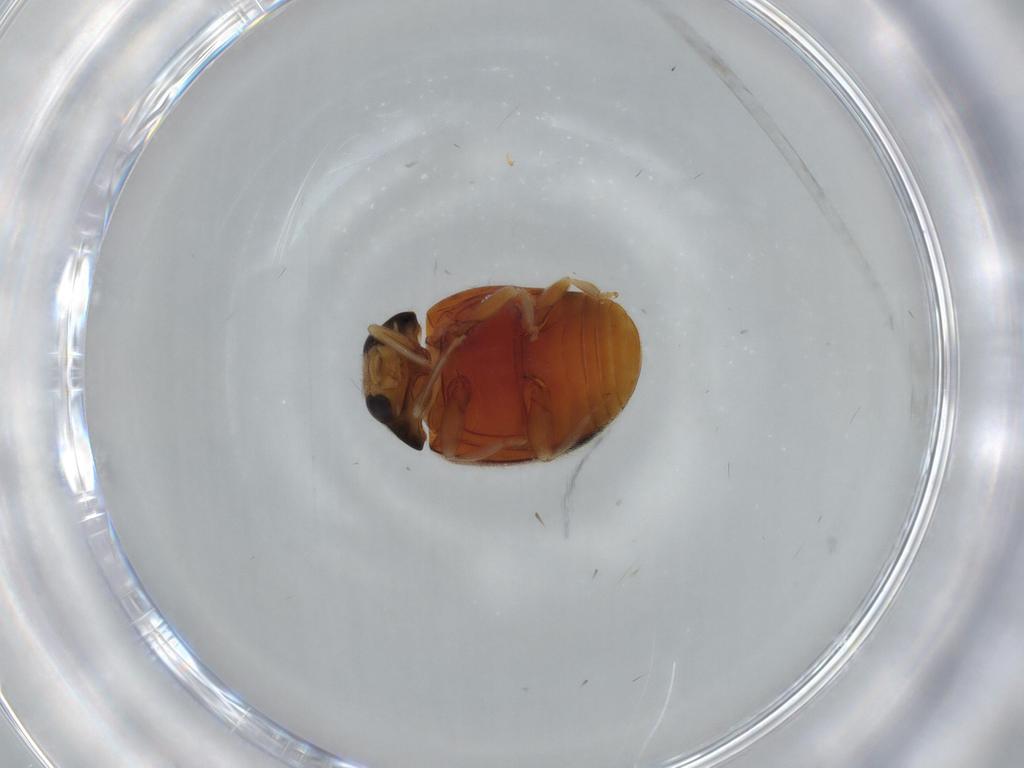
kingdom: Animalia
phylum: Arthropoda
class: Insecta
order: Coleoptera
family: Coccinellidae
